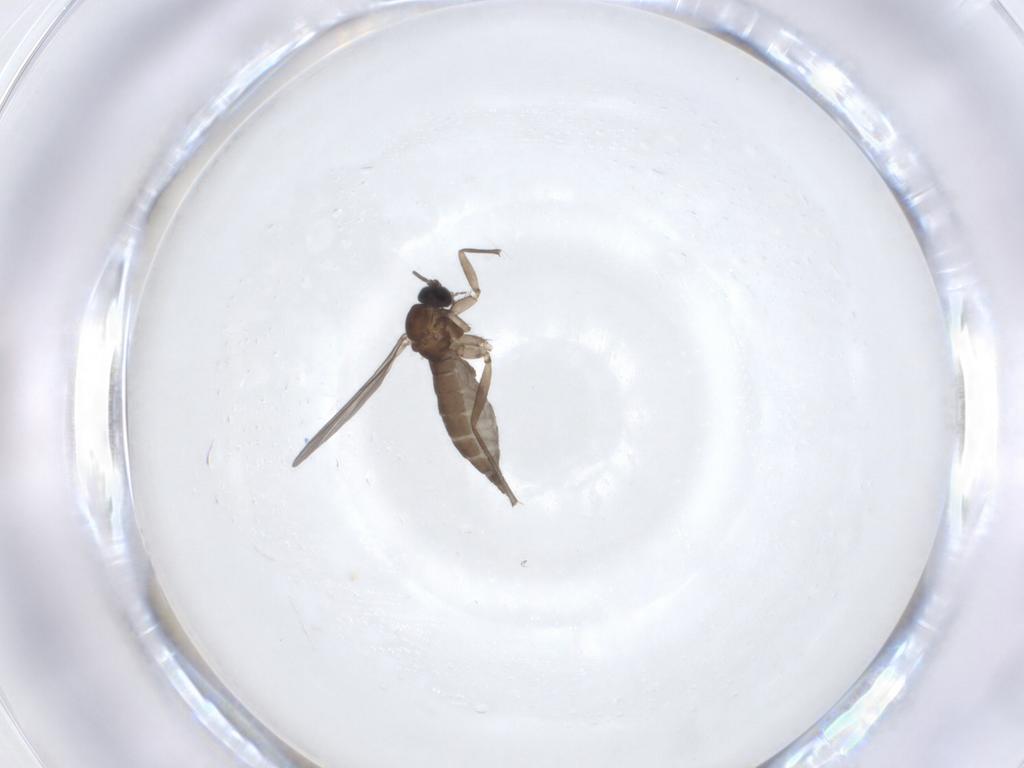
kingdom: Animalia
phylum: Arthropoda
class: Insecta
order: Diptera
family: Sciaridae
